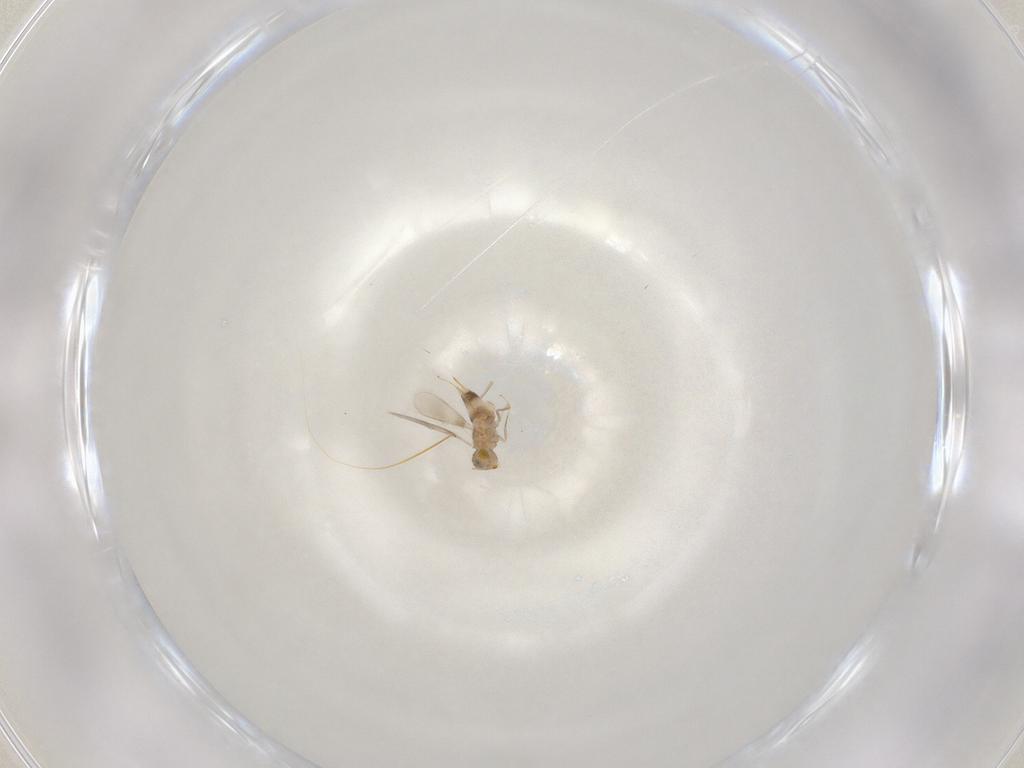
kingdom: Animalia
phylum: Arthropoda
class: Insecta
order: Hymenoptera
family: Aphelinidae
